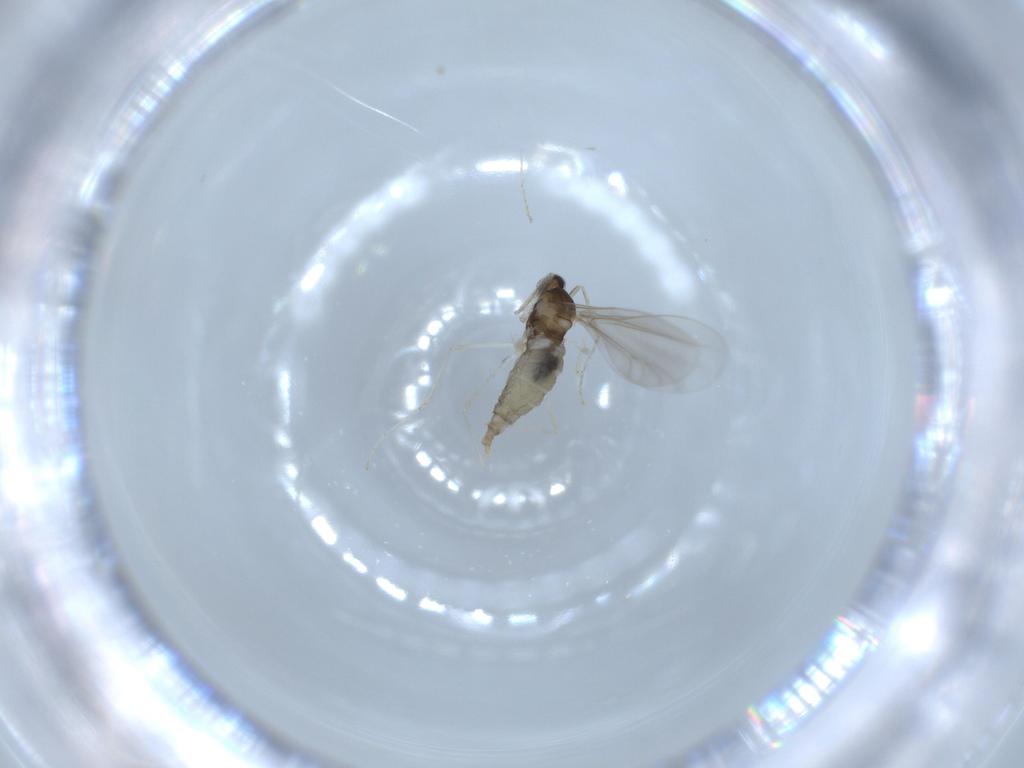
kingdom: Animalia
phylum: Arthropoda
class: Insecta
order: Diptera
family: Cecidomyiidae
